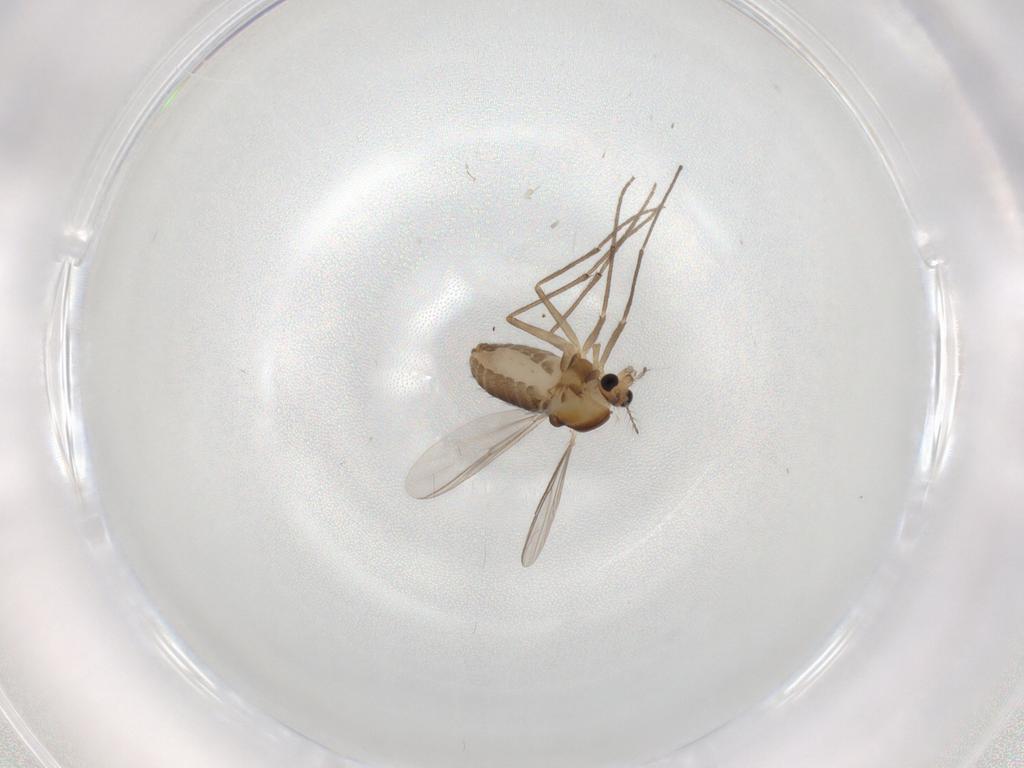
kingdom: Animalia
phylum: Arthropoda
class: Insecta
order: Diptera
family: Chironomidae
